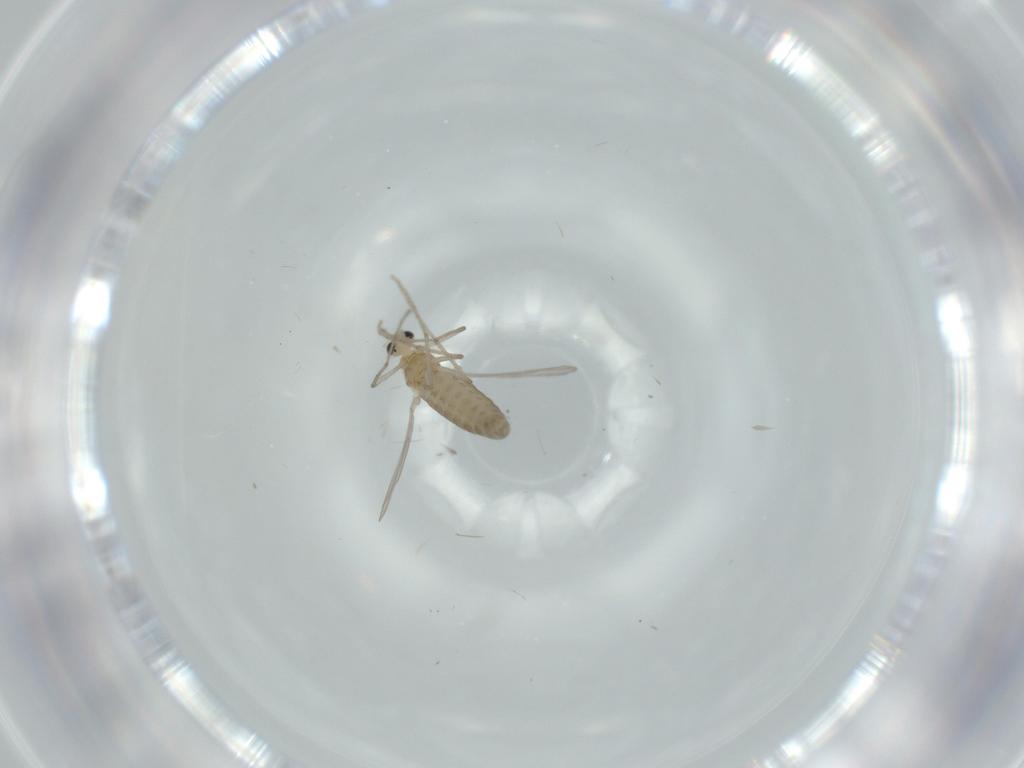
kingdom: Animalia
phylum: Arthropoda
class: Insecta
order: Diptera
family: Chironomidae
